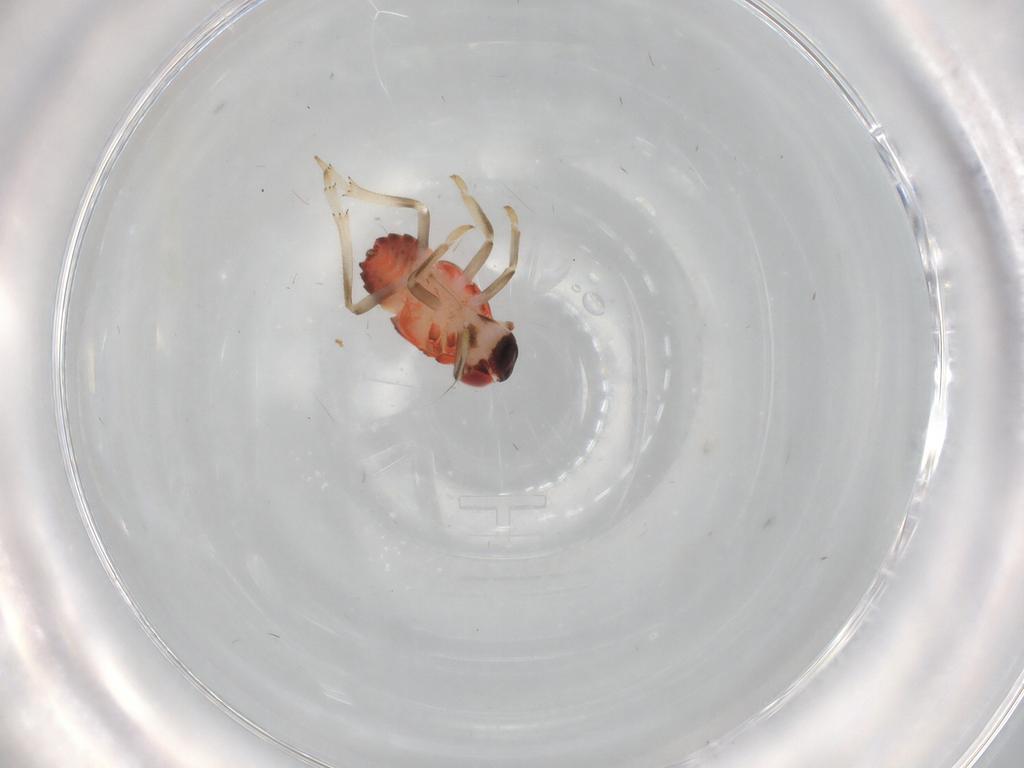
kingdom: Animalia
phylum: Arthropoda
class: Insecta
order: Hemiptera
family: Nogodinidae
